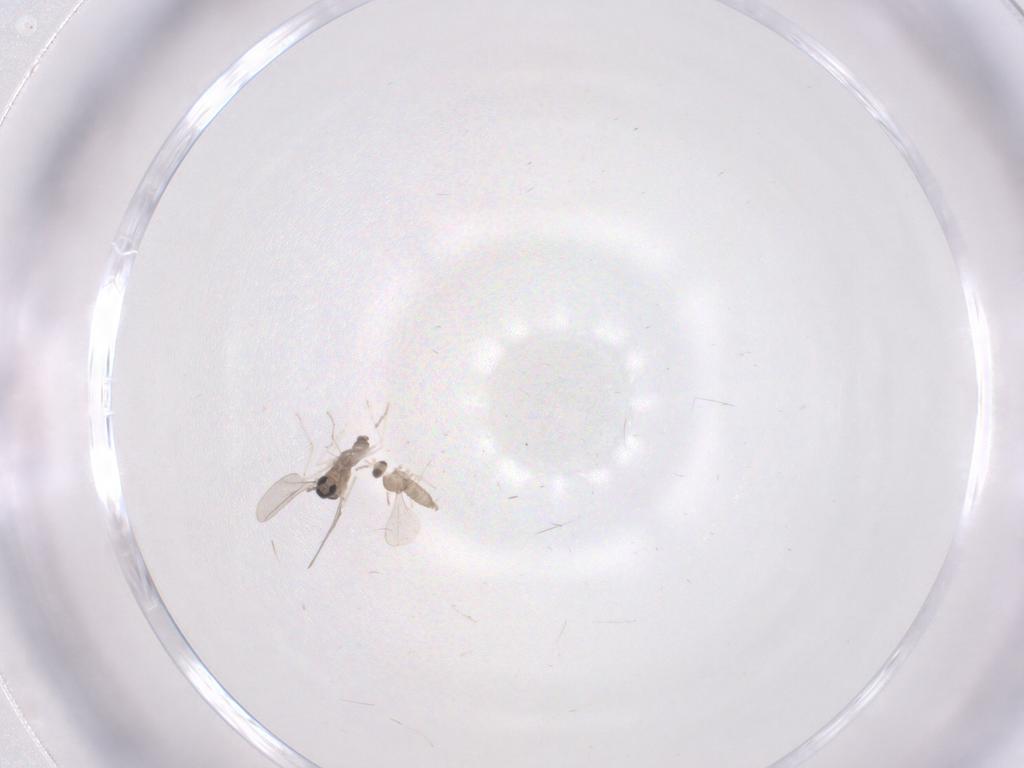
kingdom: Animalia
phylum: Arthropoda
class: Insecta
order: Diptera
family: Cecidomyiidae
